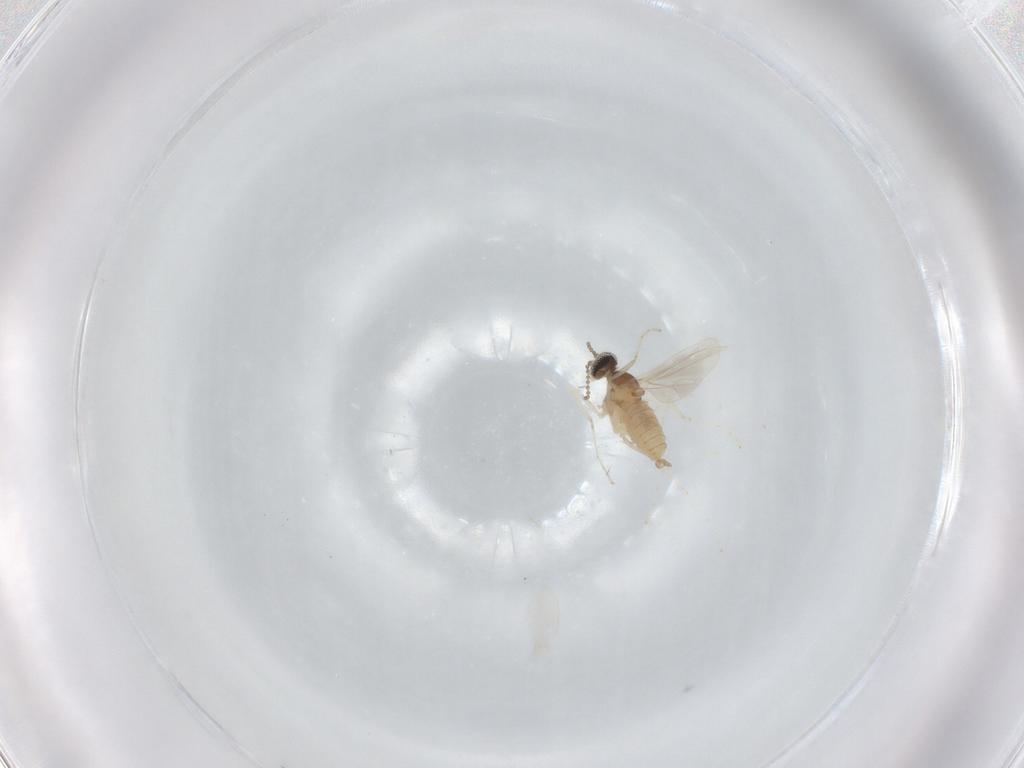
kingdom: Animalia
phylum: Arthropoda
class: Insecta
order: Diptera
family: Cecidomyiidae
